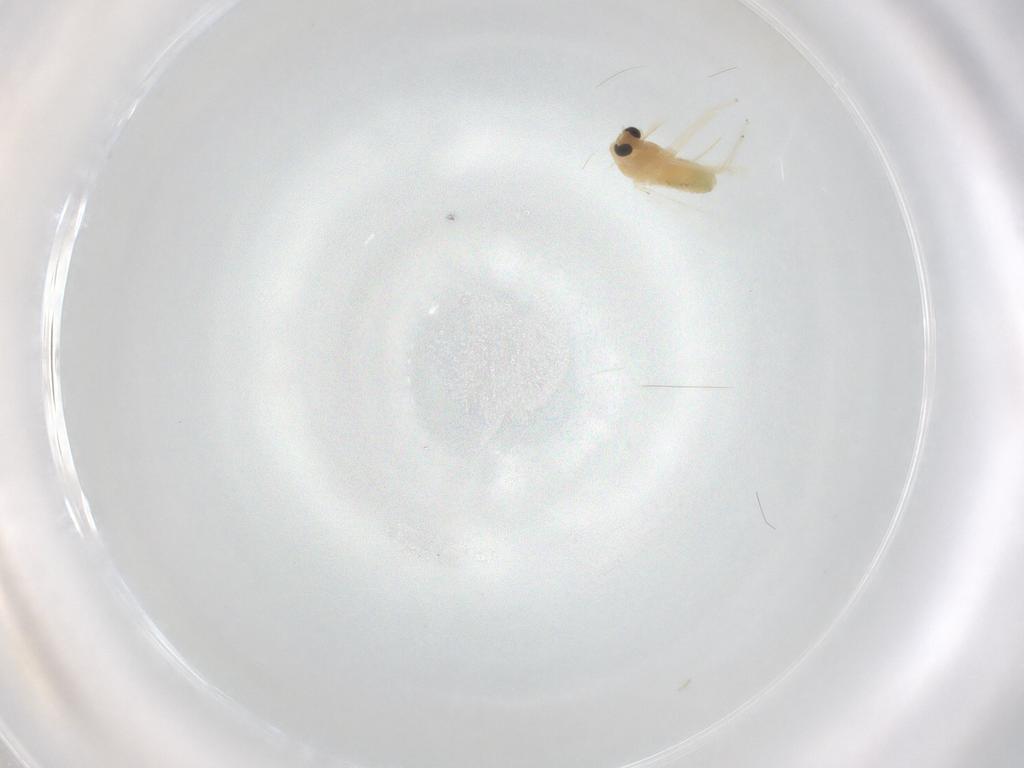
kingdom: Animalia
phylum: Arthropoda
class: Insecta
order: Diptera
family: Chironomidae
